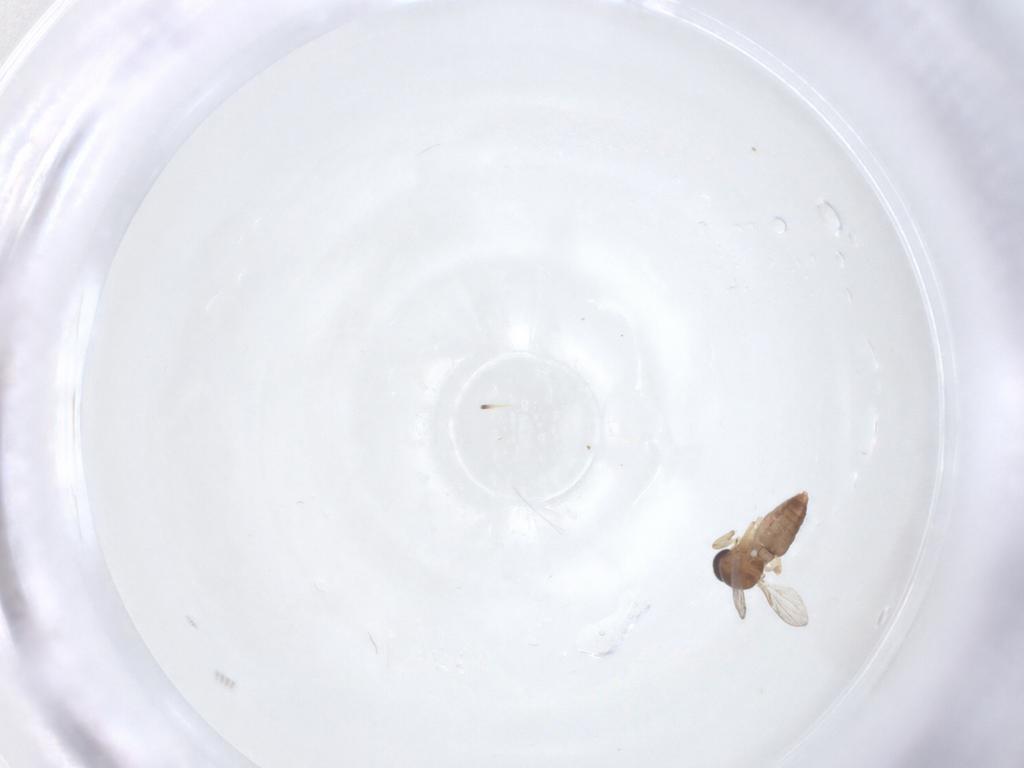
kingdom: Animalia
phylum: Arthropoda
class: Insecta
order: Diptera
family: Ceratopogonidae
